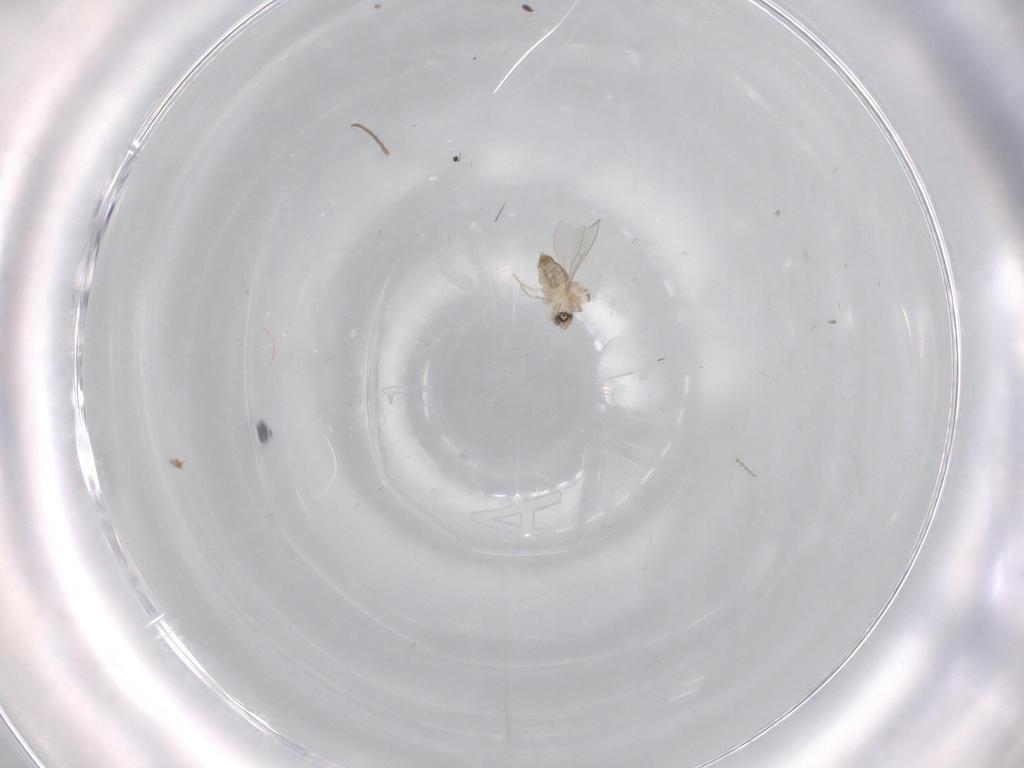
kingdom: Animalia
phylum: Arthropoda
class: Insecta
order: Diptera
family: Cecidomyiidae
